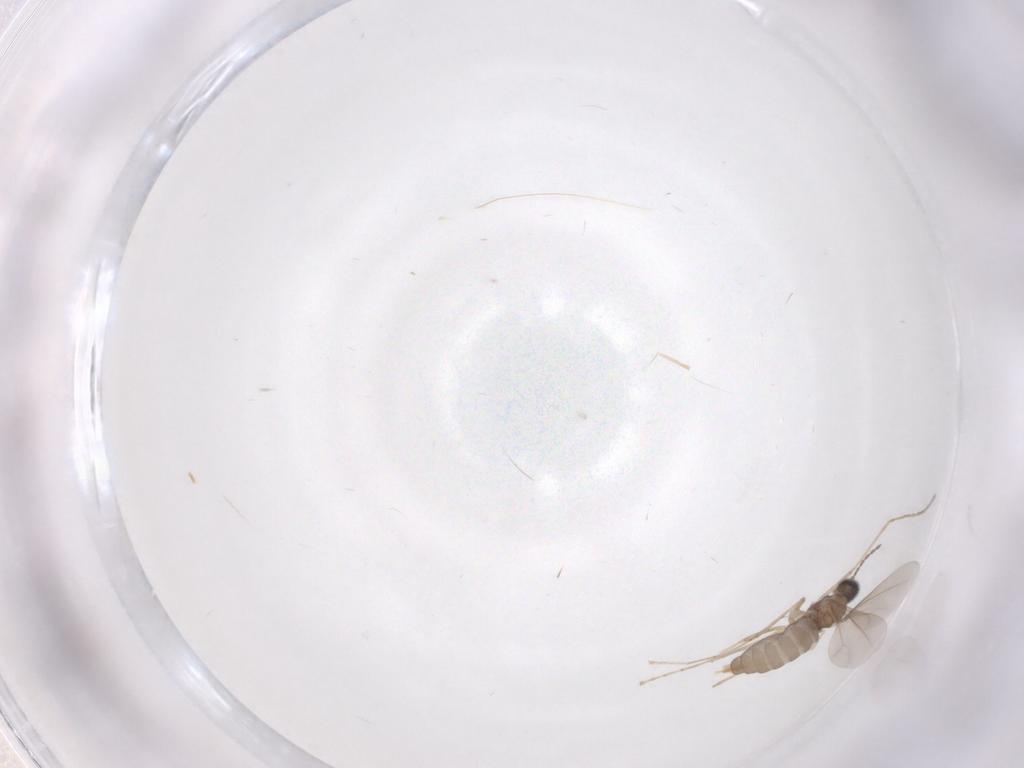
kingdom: Animalia
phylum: Arthropoda
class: Insecta
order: Diptera
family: Cecidomyiidae
